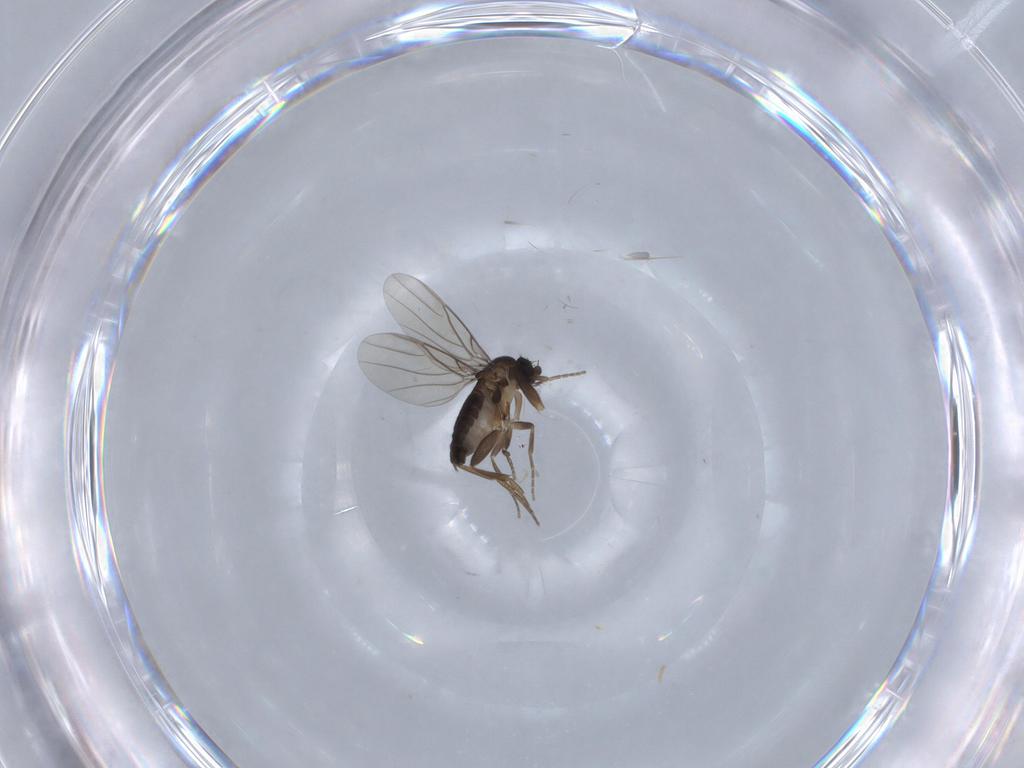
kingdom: Animalia
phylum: Arthropoda
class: Insecta
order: Diptera
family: Phoridae
